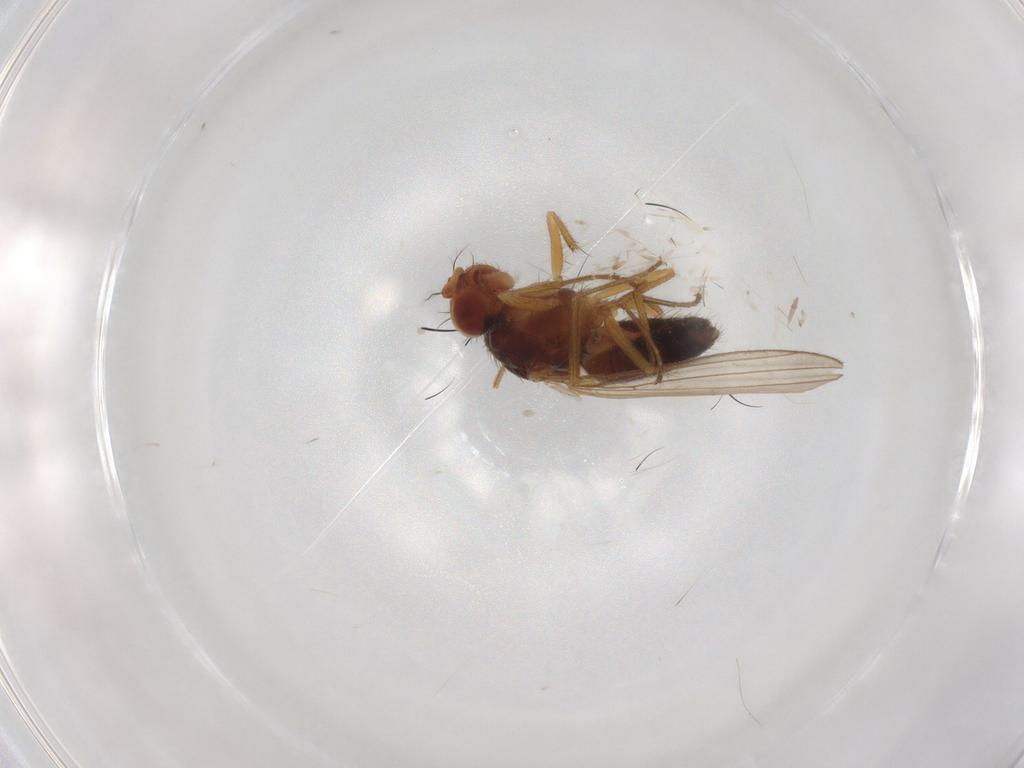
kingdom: Animalia
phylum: Arthropoda
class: Insecta
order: Diptera
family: Drosophilidae
